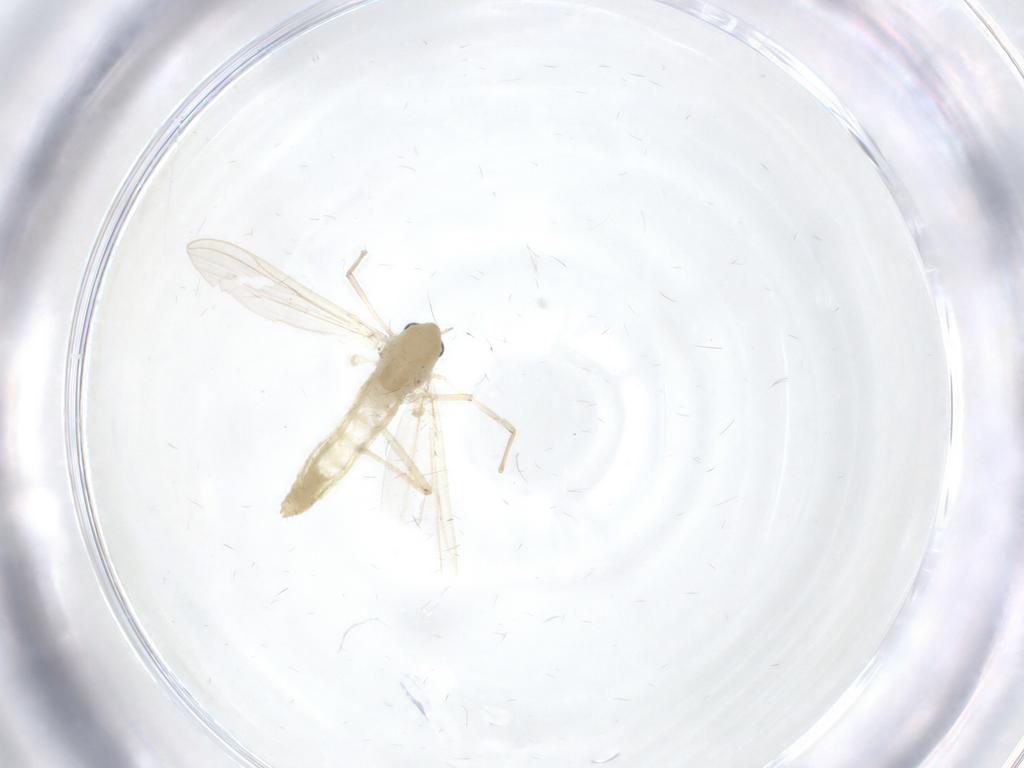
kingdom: Animalia
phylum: Arthropoda
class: Insecta
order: Diptera
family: Chironomidae
